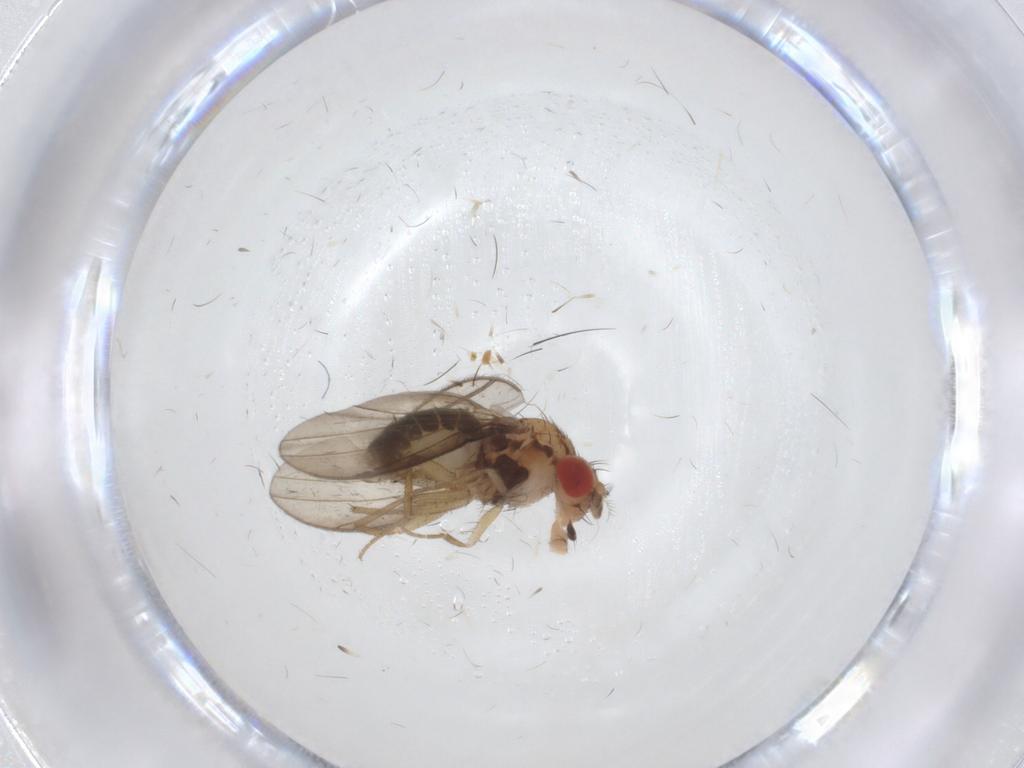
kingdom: Animalia
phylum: Arthropoda
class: Insecta
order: Diptera
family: Drosophilidae
